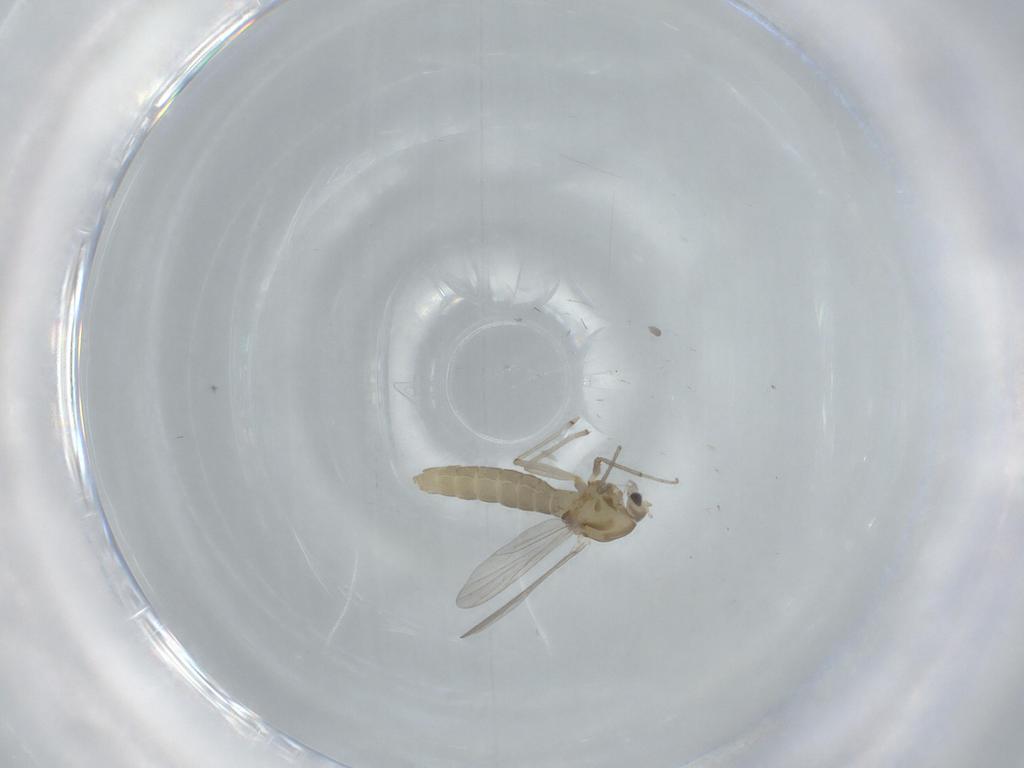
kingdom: Animalia
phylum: Arthropoda
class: Insecta
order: Diptera
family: Chironomidae
